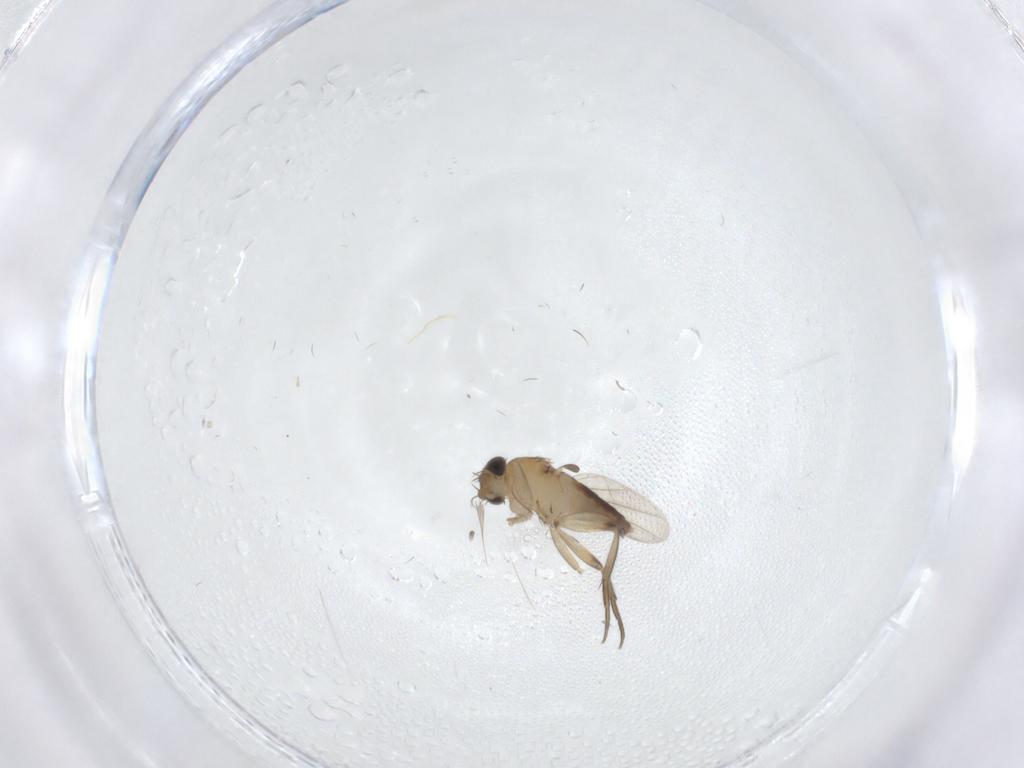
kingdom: Animalia
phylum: Arthropoda
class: Insecta
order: Diptera
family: Phoridae
